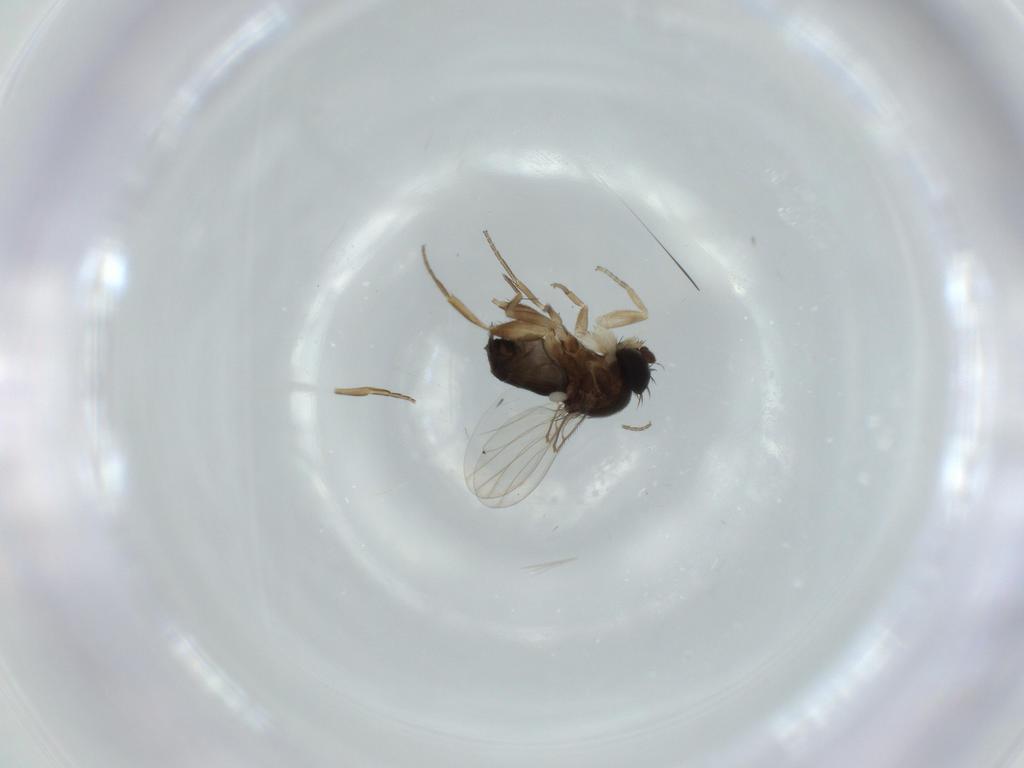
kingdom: Animalia
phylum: Arthropoda
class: Insecta
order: Diptera
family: Phoridae
